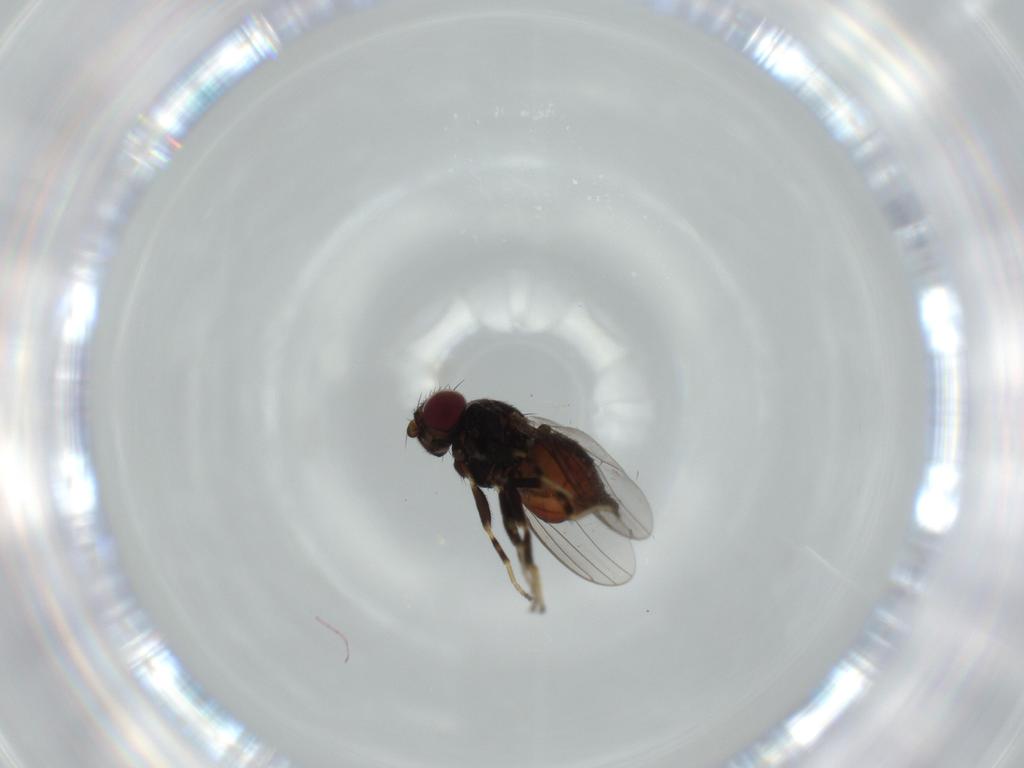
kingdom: Animalia
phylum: Arthropoda
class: Insecta
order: Diptera
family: Chloropidae
